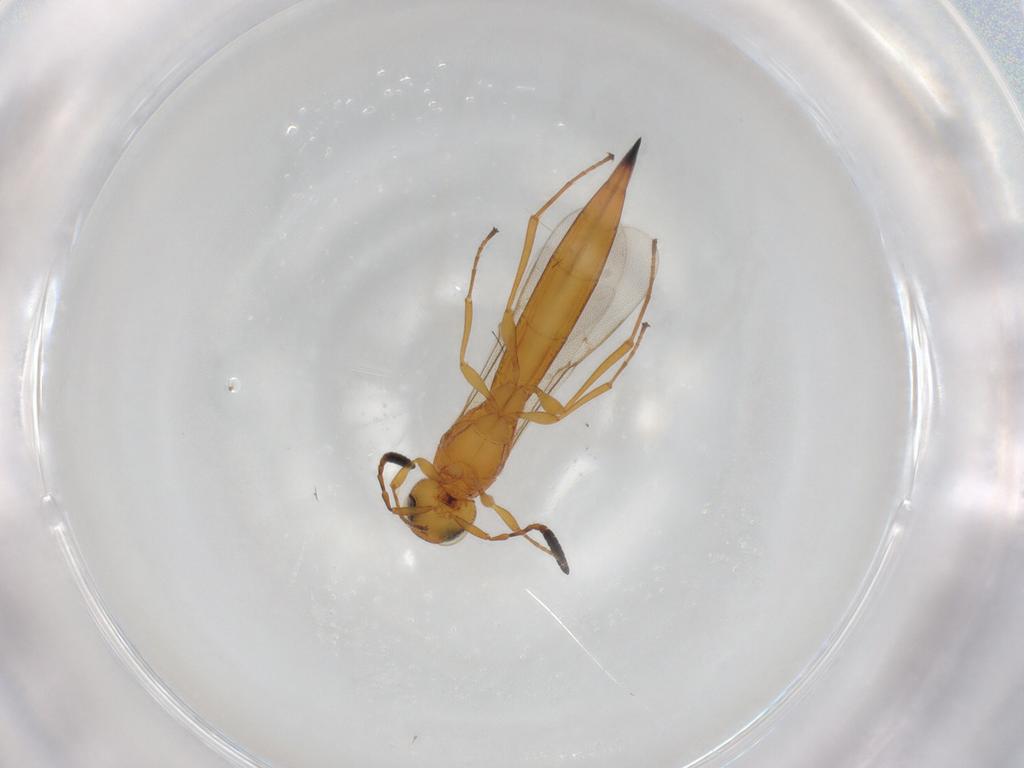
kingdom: Animalia
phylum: Arthropoda
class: Insecta
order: Hymenoptera
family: Scelionidae
